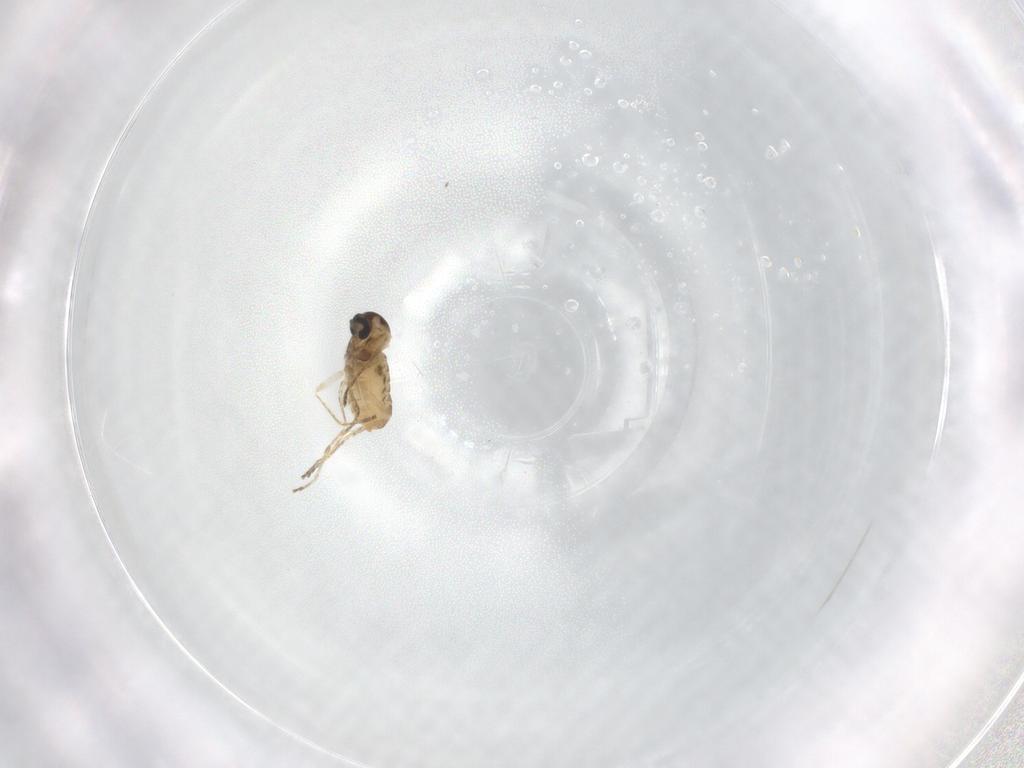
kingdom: Animalia
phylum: Arthropoda
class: Insecta
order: Diptera
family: Cecidomyiidae
